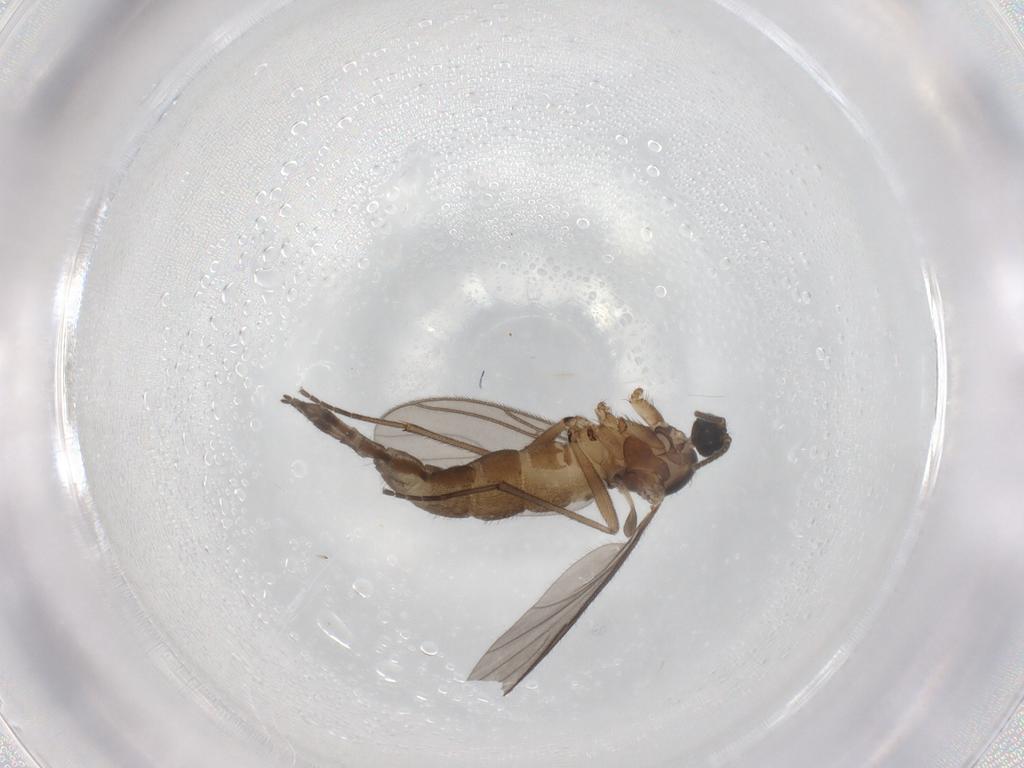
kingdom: Animalia
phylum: Arthropoda
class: Insecta
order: Diptera
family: Sciaridae
